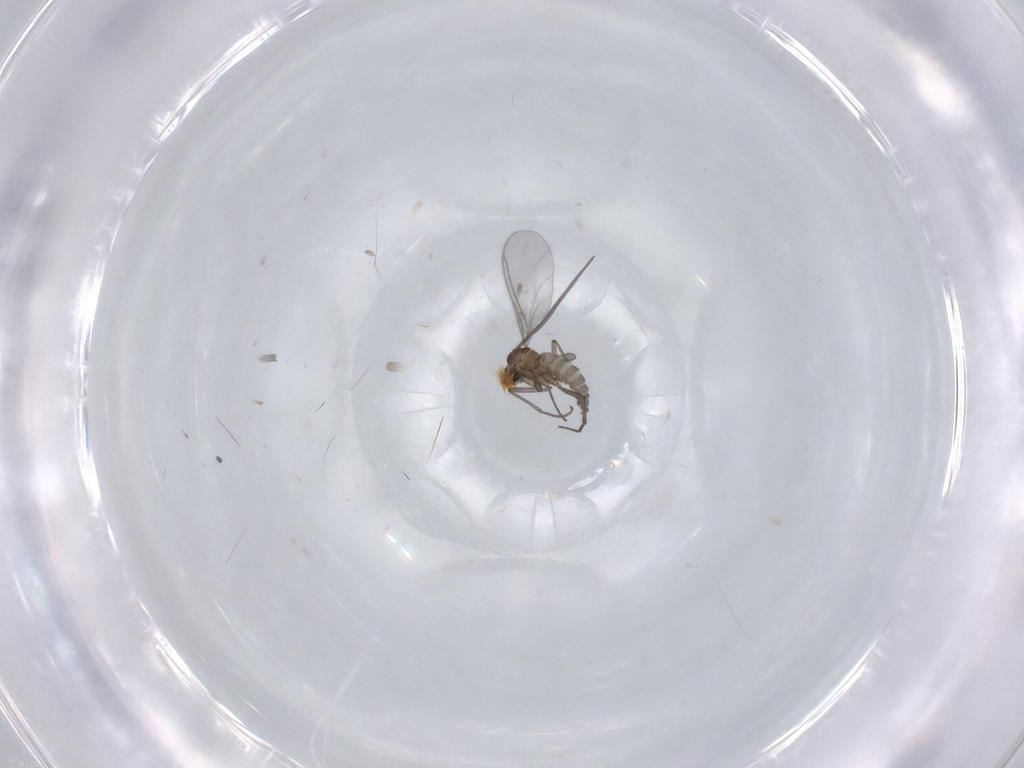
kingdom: Animalia
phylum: Arthropoda
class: Insecta
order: Diptera
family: Sciaridae
